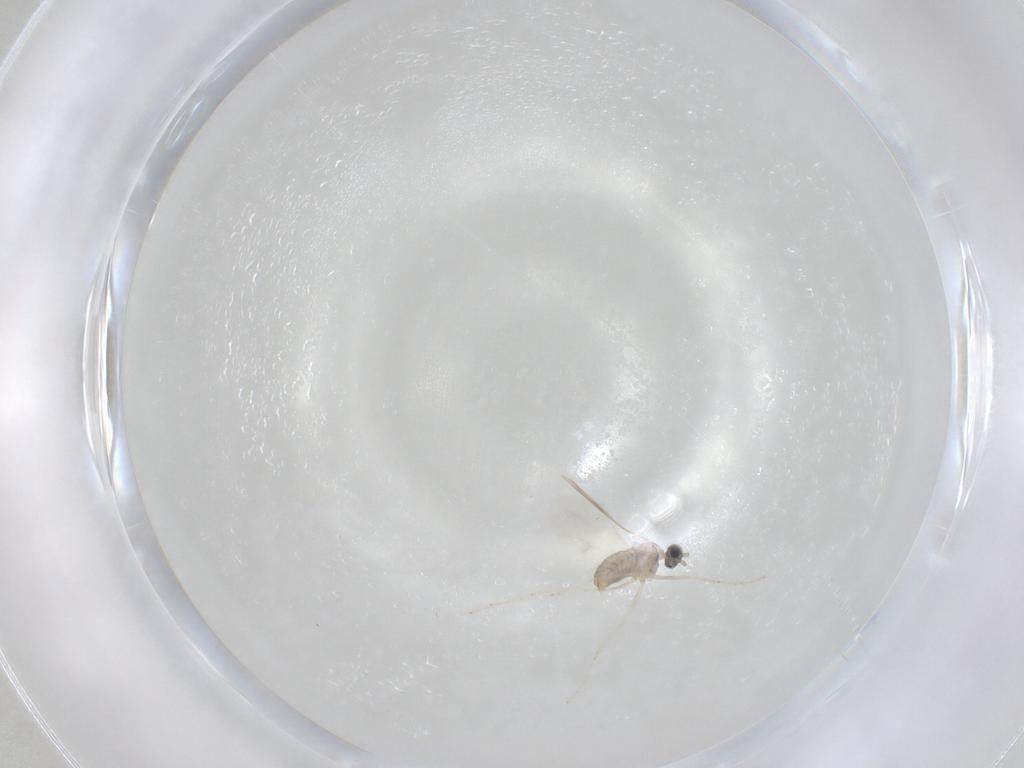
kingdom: Animalia
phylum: Arthropoda
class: Insecta
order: Diptera
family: Cecidomyiidae
